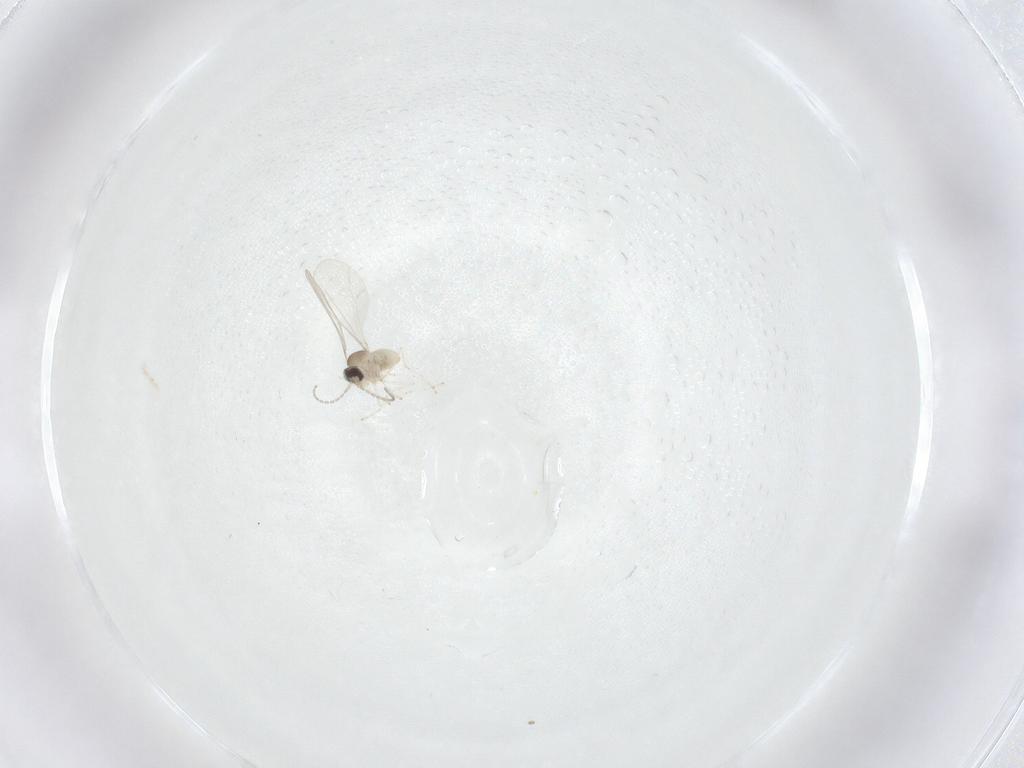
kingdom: Animalia
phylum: Arthropoda
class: Insecta
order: Diptera
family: Cecidomyiidae
